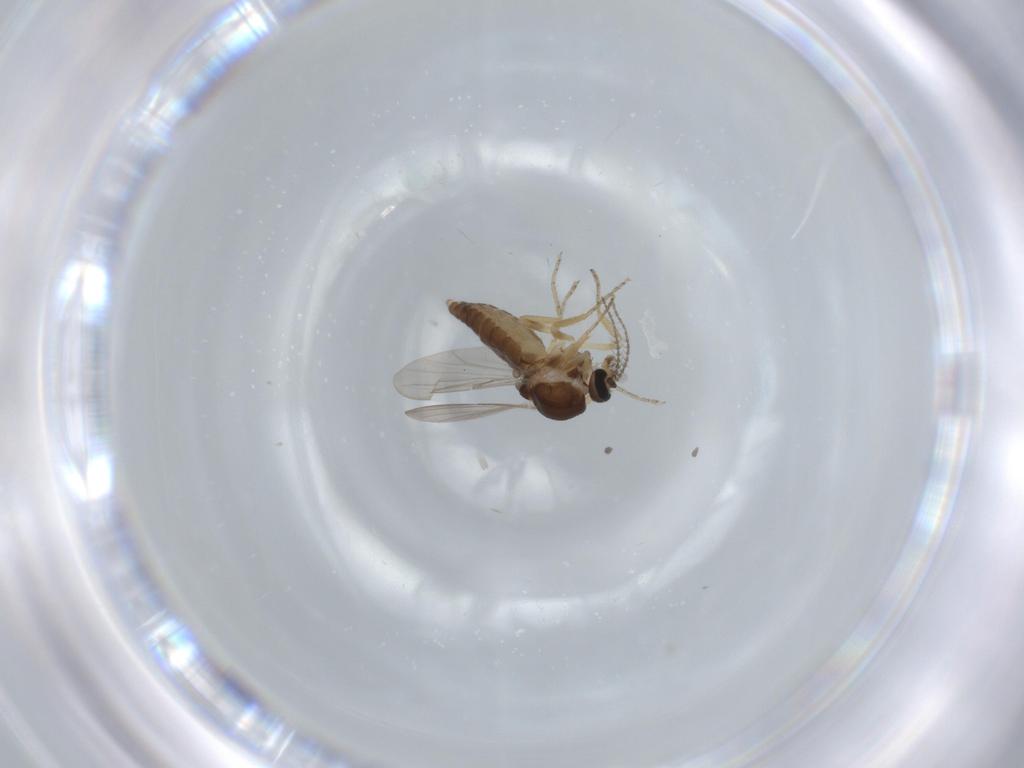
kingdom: Animalia
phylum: Arthropoda
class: Insecta
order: Diptera
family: Ceratopogonidae
